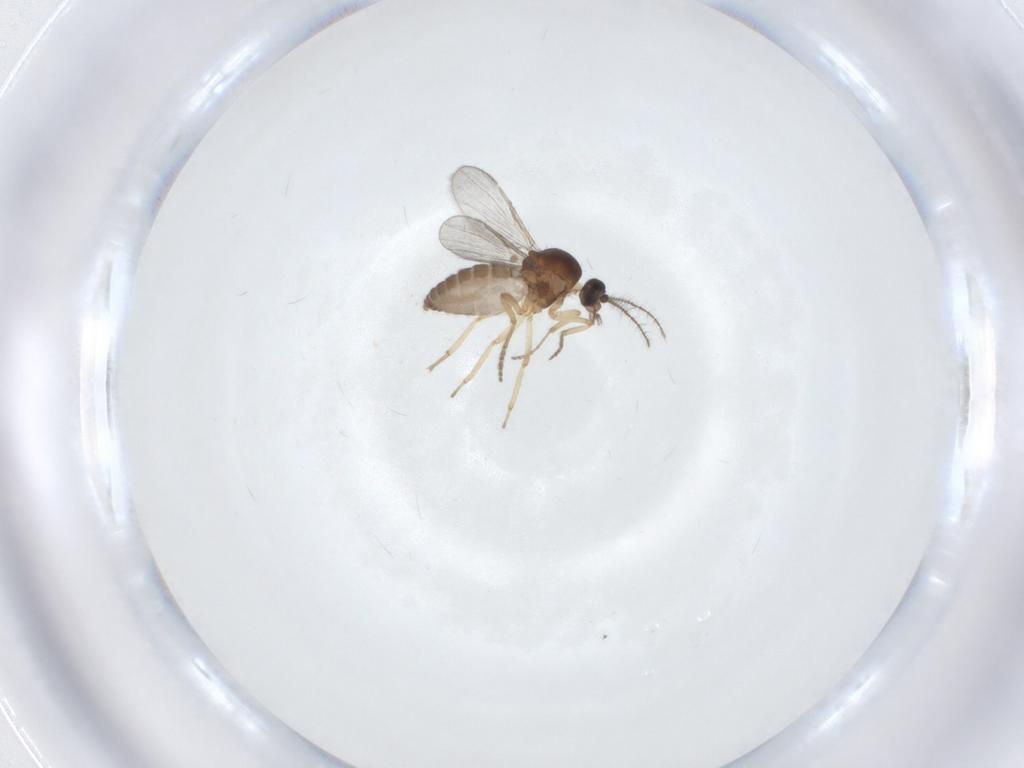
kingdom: Animalia
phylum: Arthropoda
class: Insecta
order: Diptera
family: Ceratopogonidae
